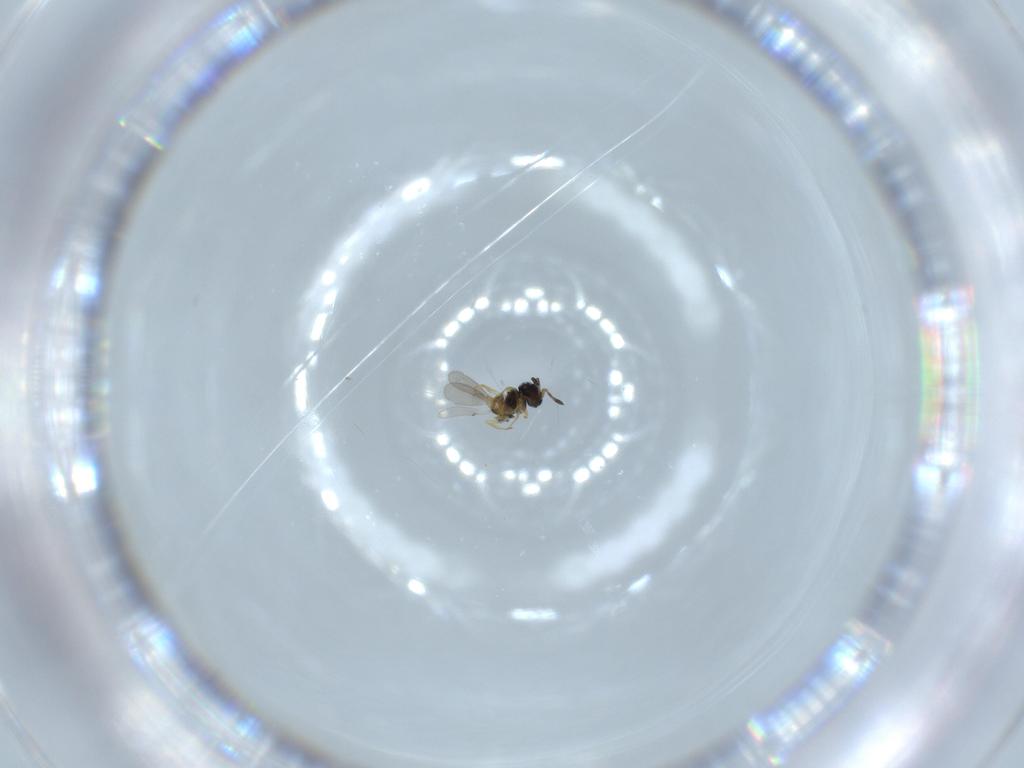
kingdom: Animalia
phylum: Arthropoda
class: Insecta
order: Hymenoptera
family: Scelionidae
